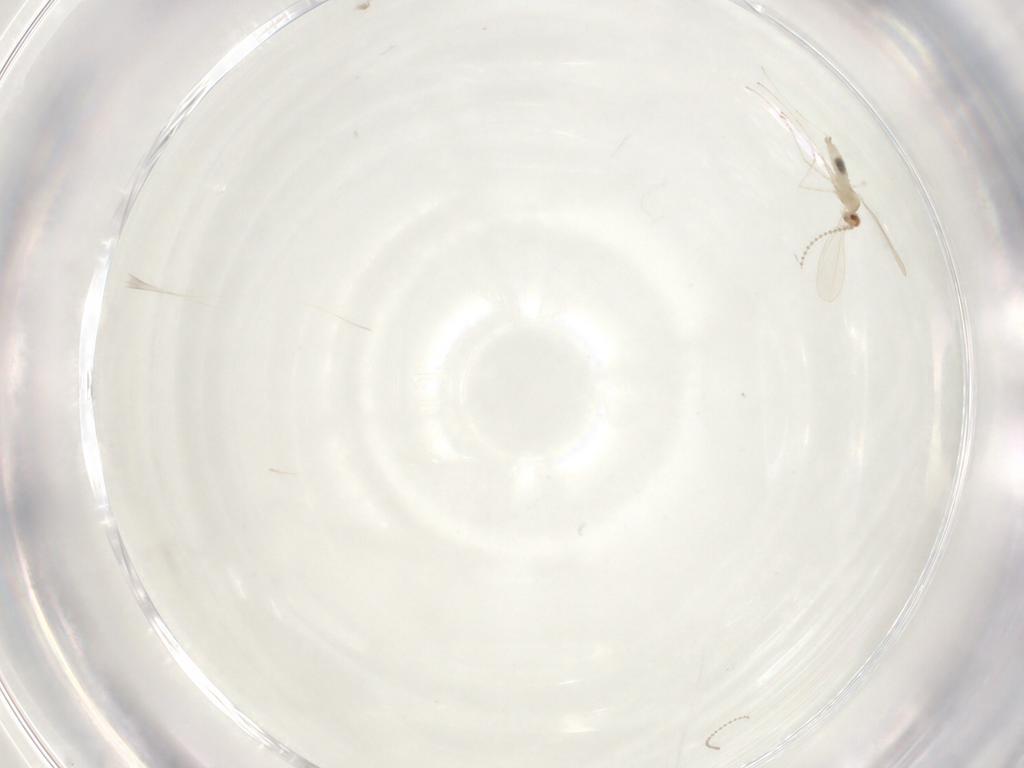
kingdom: Animalia
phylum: Arthropoda
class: Insecta
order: Diptera
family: Cecidomyiidae
